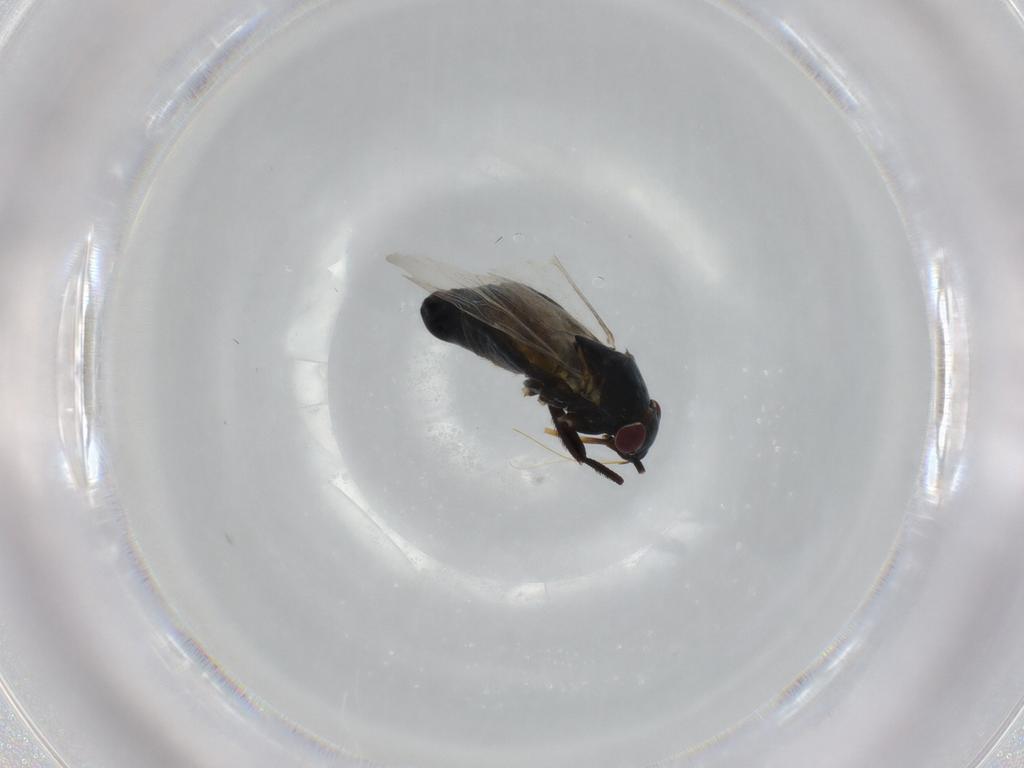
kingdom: Animalia
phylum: Arthropoda
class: Insecta
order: Hemiptera
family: Miridae
